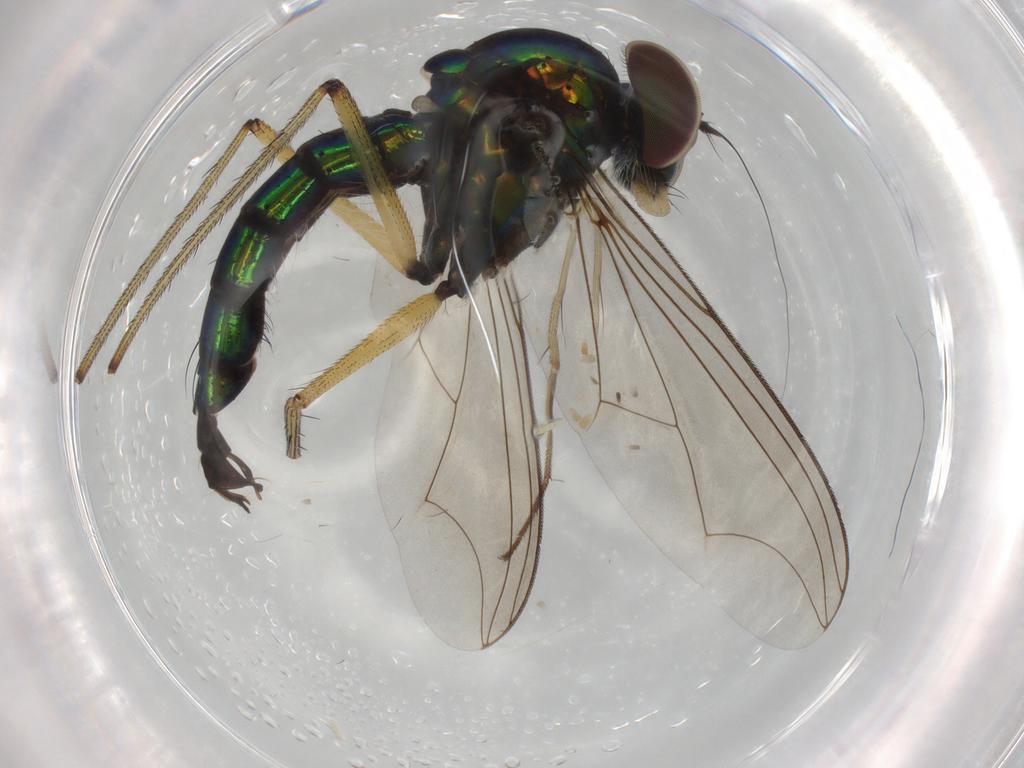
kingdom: Animalia
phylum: Arthropoda
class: Insecta
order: Diptera
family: Dolichopodidae
